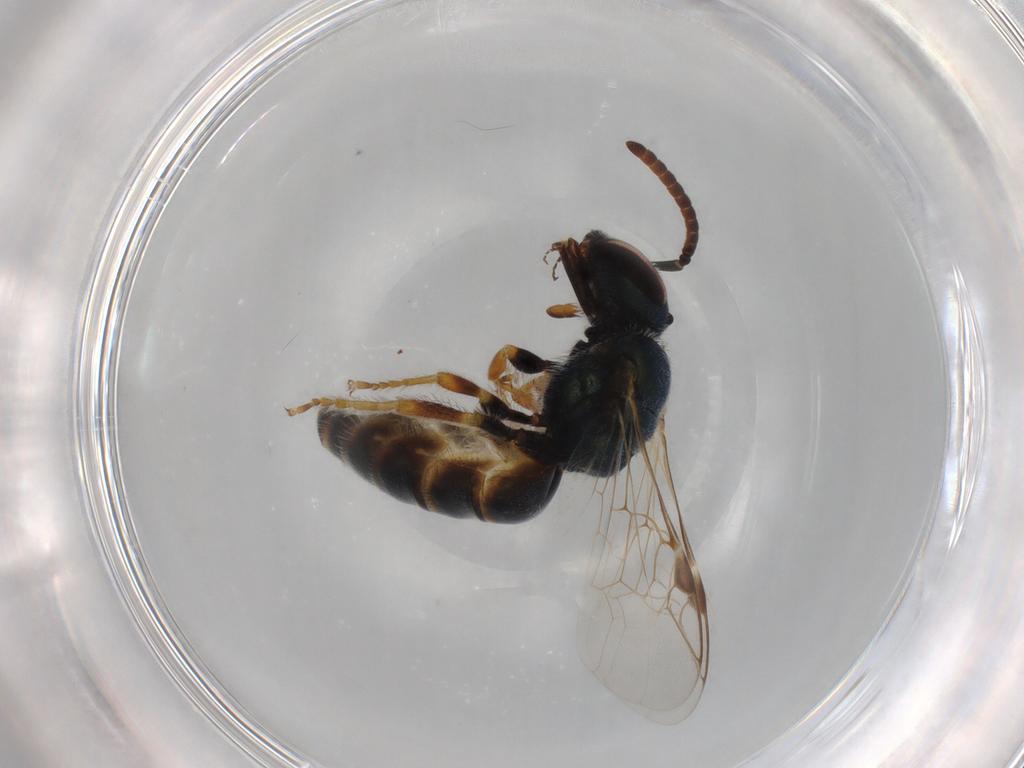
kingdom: Animalia
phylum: Arthropoda
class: Insecta
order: Hymenoptera
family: Halictidae
